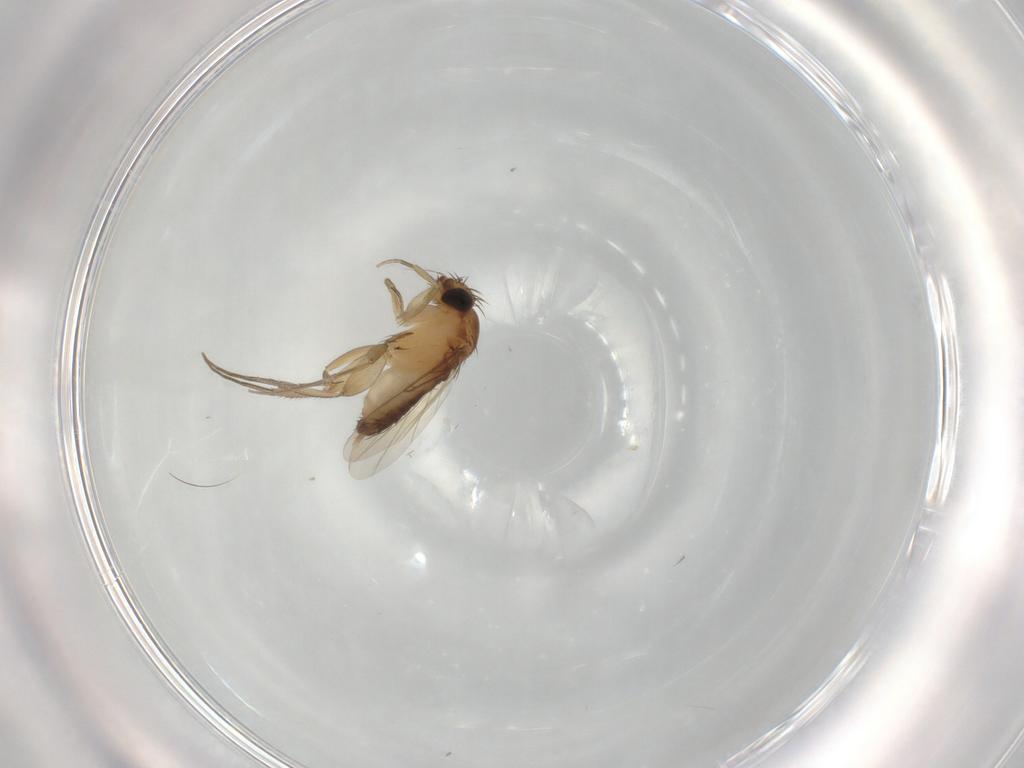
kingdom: Animalia
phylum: Arthropoda
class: Insecta
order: Diptera
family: Phoridae
